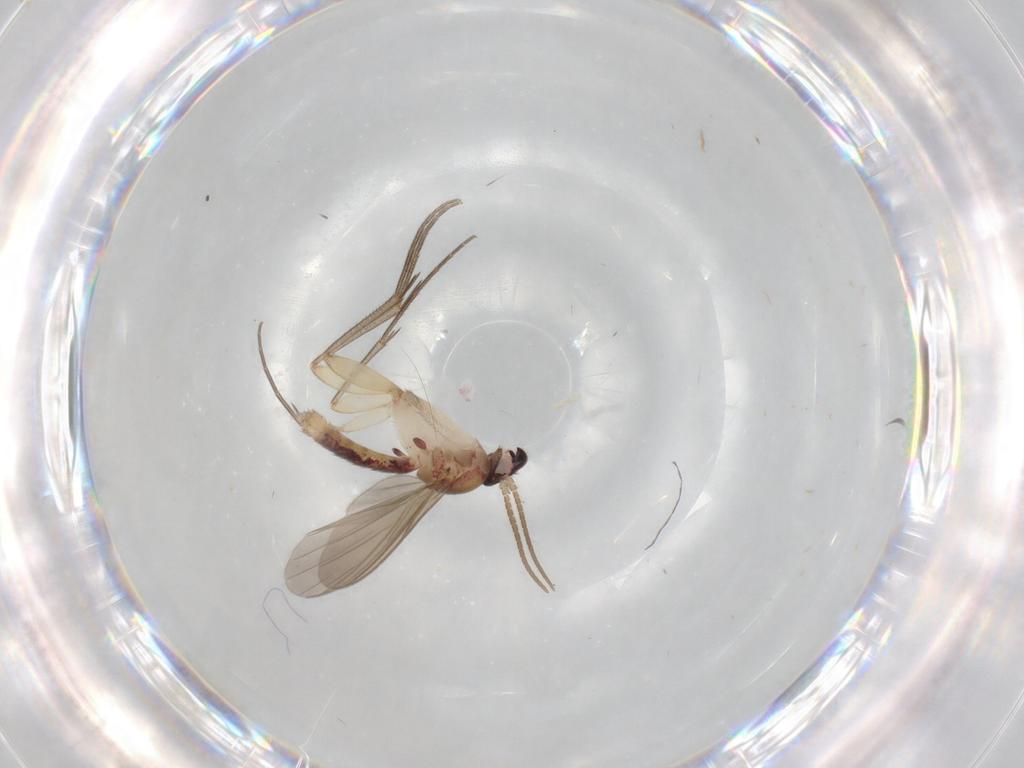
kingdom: Animalia
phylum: Arthropoda
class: Insecta
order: Diptera
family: Mycetophilidae
